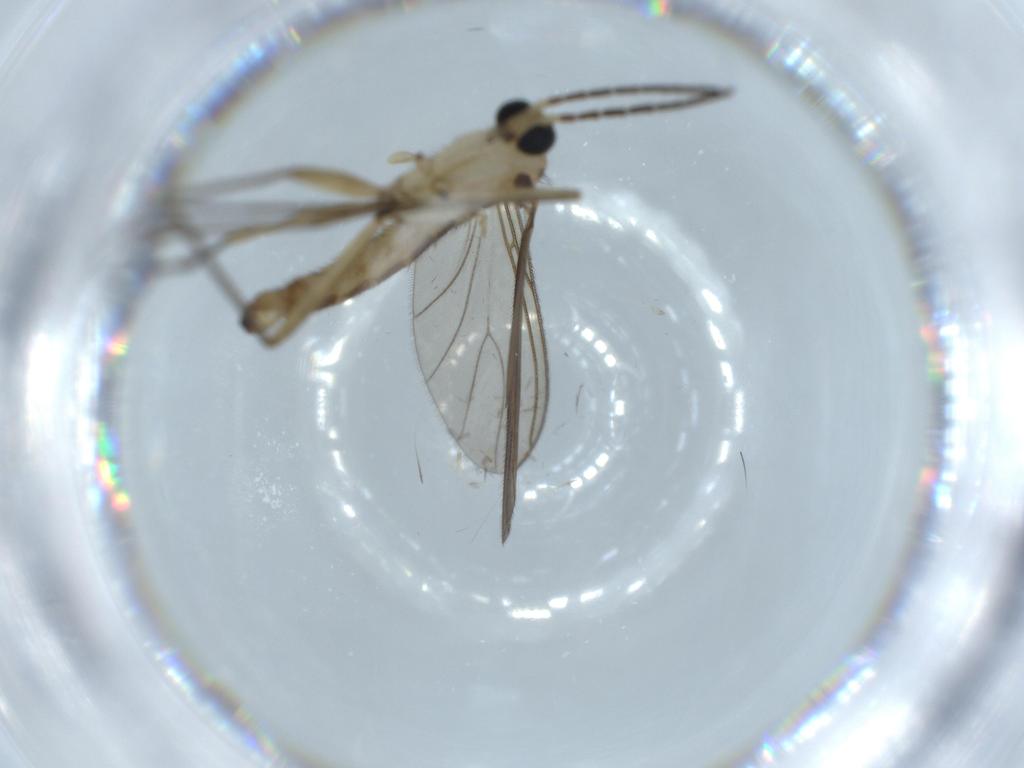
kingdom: Animalia
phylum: Arthropoda
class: Insecta
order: Diptera
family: Sciaridae
